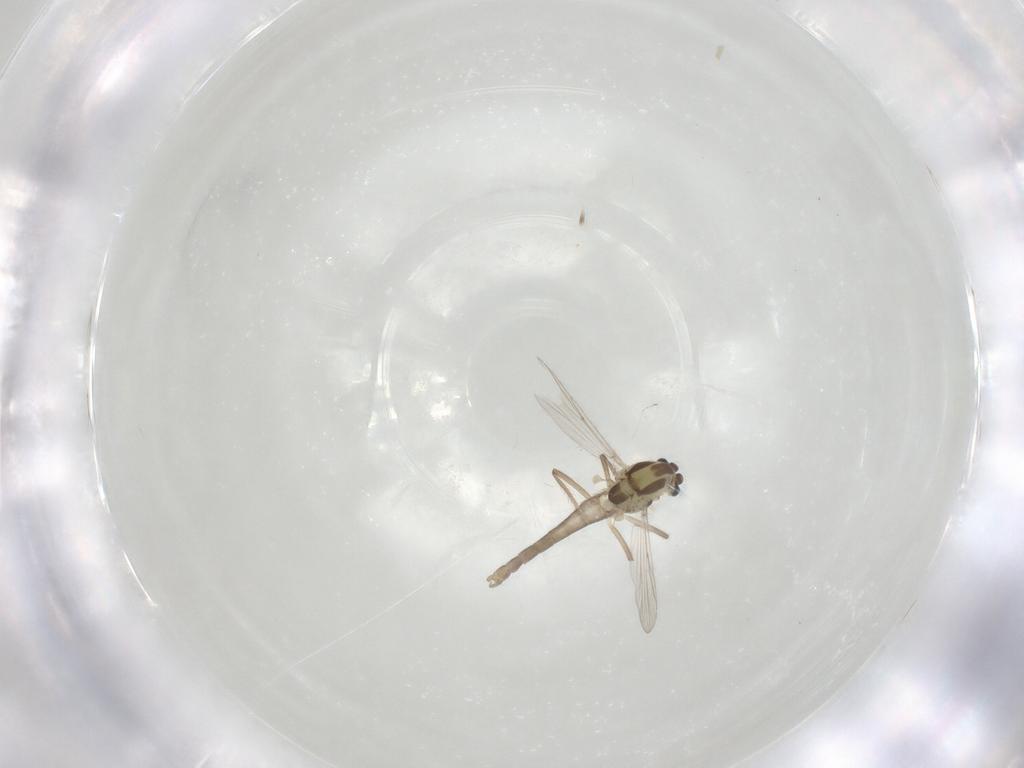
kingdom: Animalia
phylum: Arthropoda
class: Insecta
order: Diptera
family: Chironomidae
